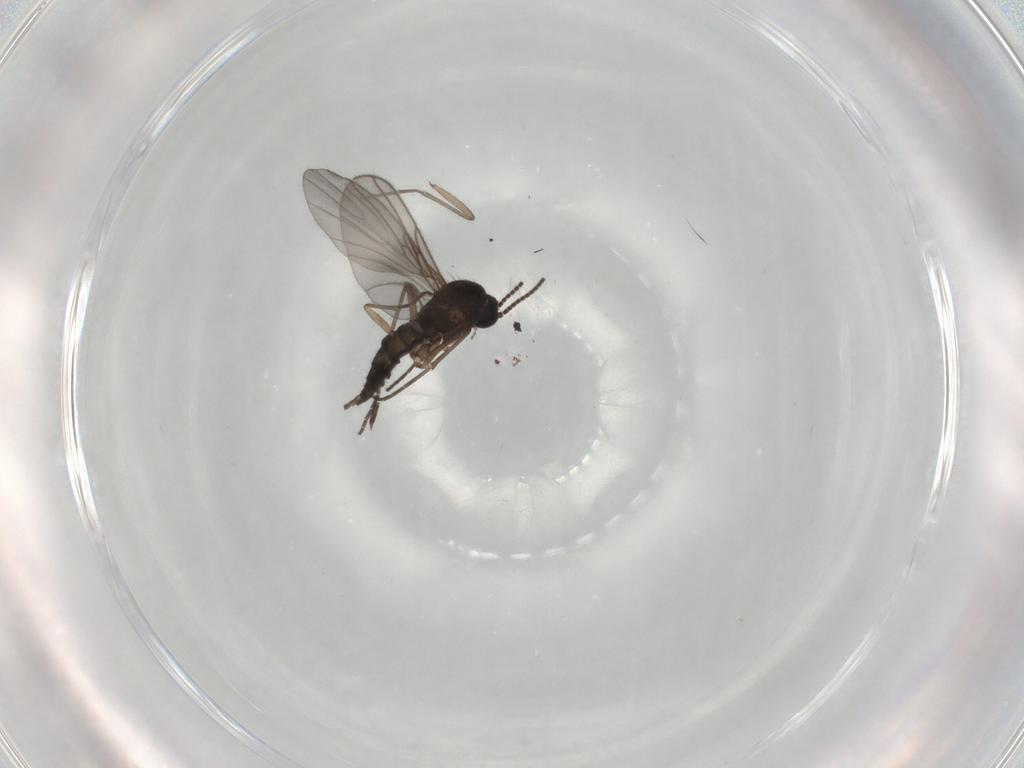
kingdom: Animalia
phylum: Arthropoda
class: Insecta
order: Diptera
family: Sciaridae
